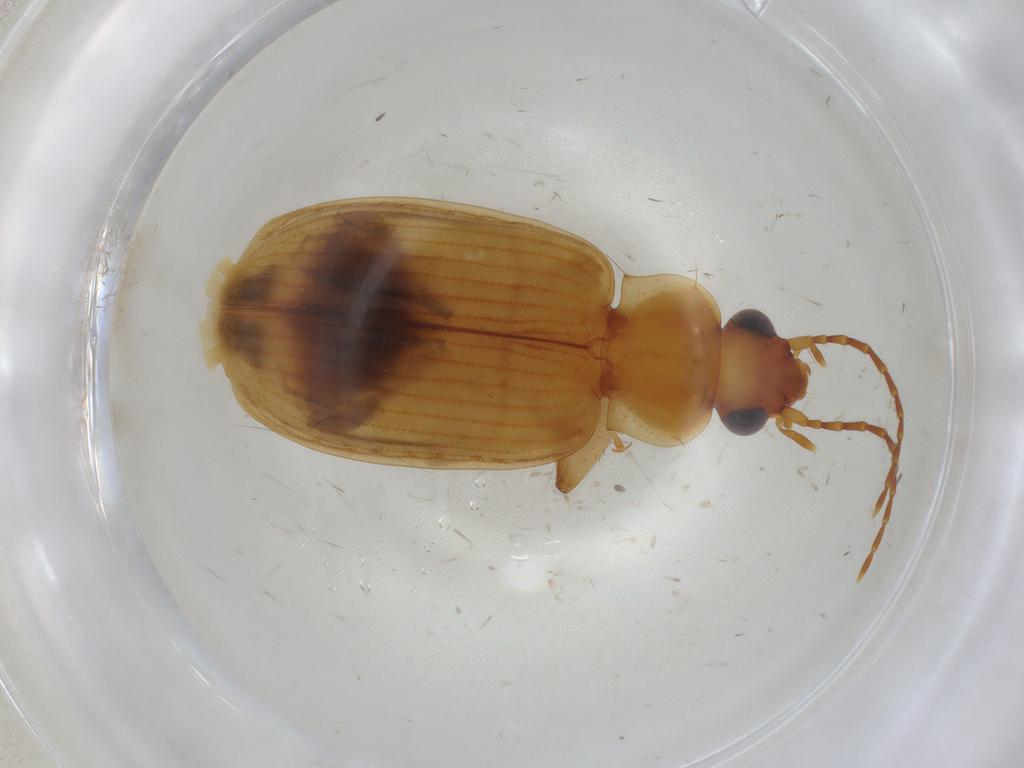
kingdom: Animalia
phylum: Arthropoda
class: Insecta
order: Coleoptera
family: Carabidae
